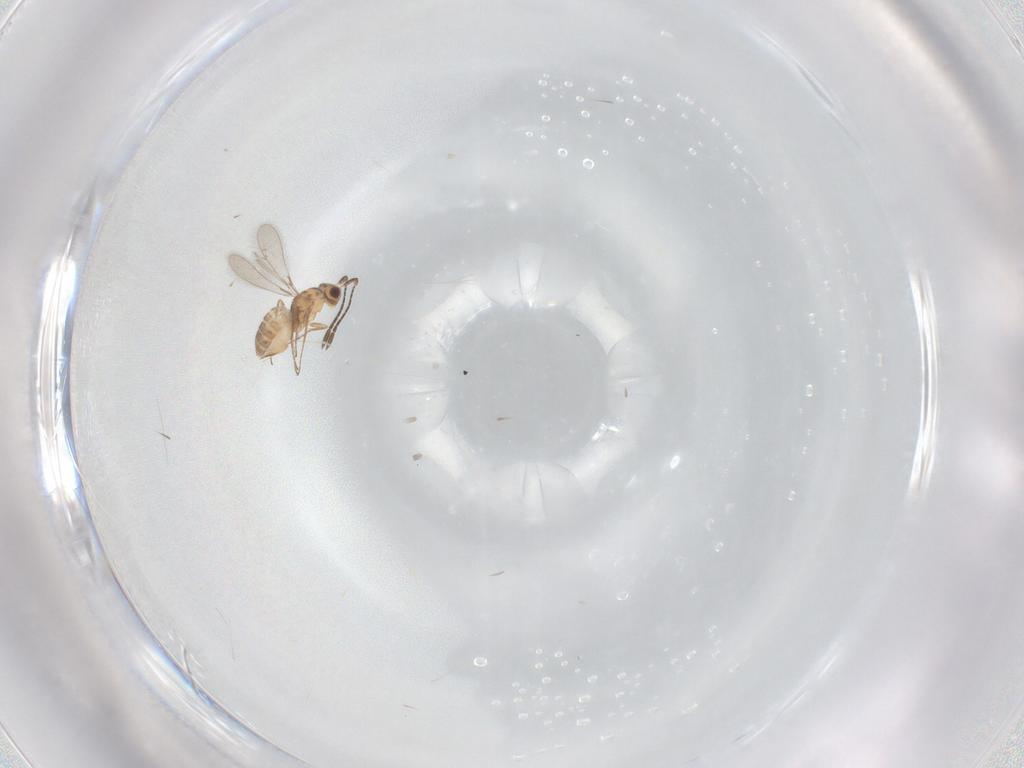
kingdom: Animalia
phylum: Arthropoda
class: Insecta
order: Hymenoptera
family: Mymaridae
